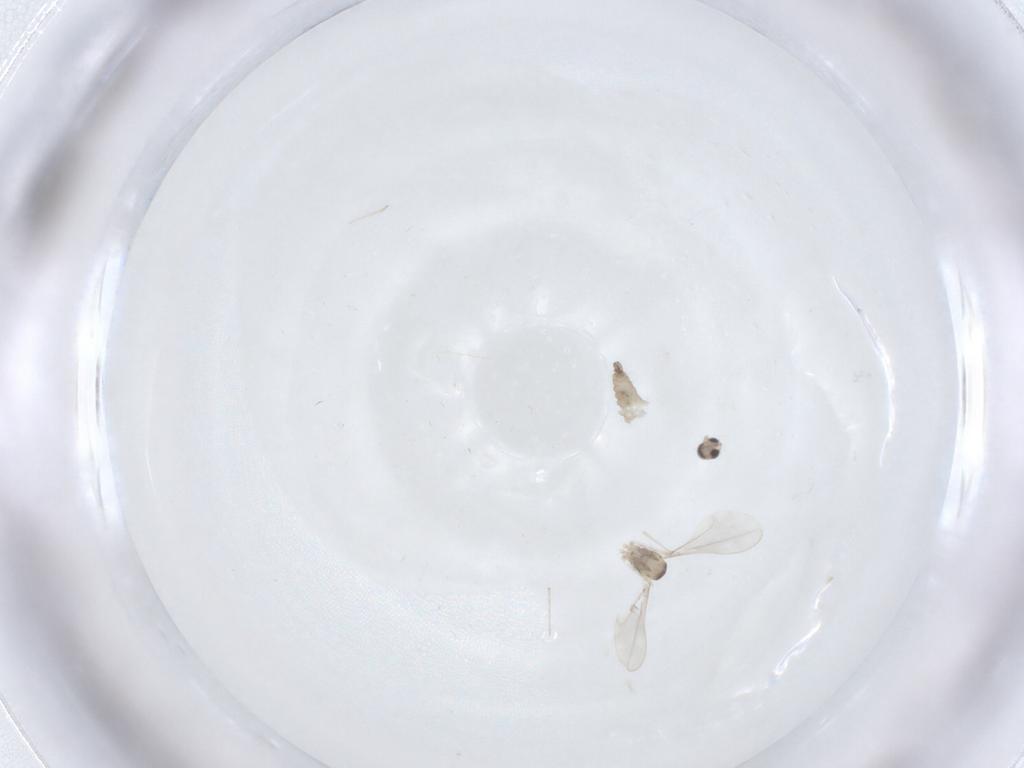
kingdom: Animalia
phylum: Arthropoda
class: Insecta
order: Diptera
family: Cecidomyiidae
